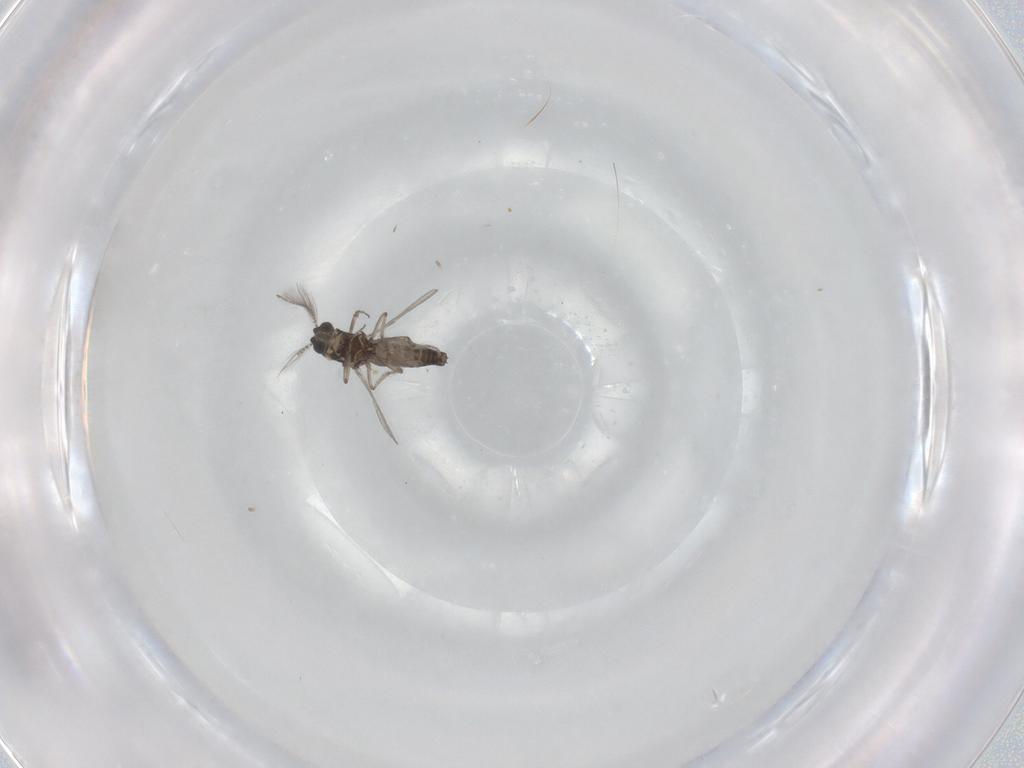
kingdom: Animalia
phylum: Arthropoda
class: Insecta
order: Diptera
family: Ceratopogonidae
